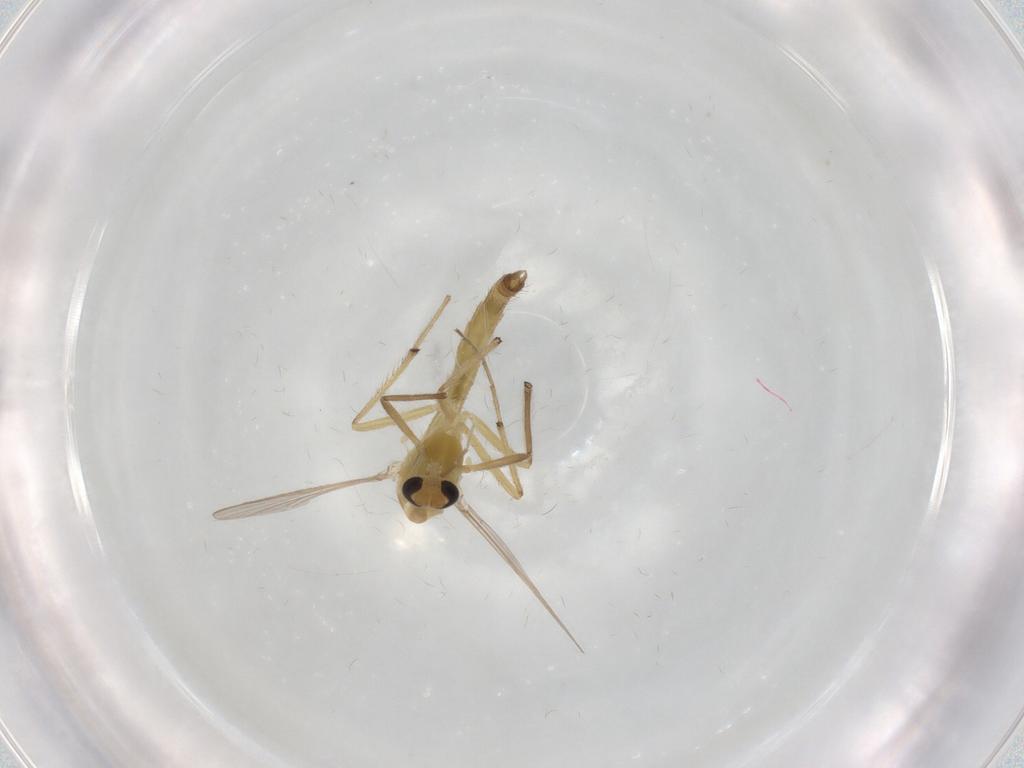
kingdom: Animalia
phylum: Arthropoda
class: Insecta
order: Diptera
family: Chironomidae
